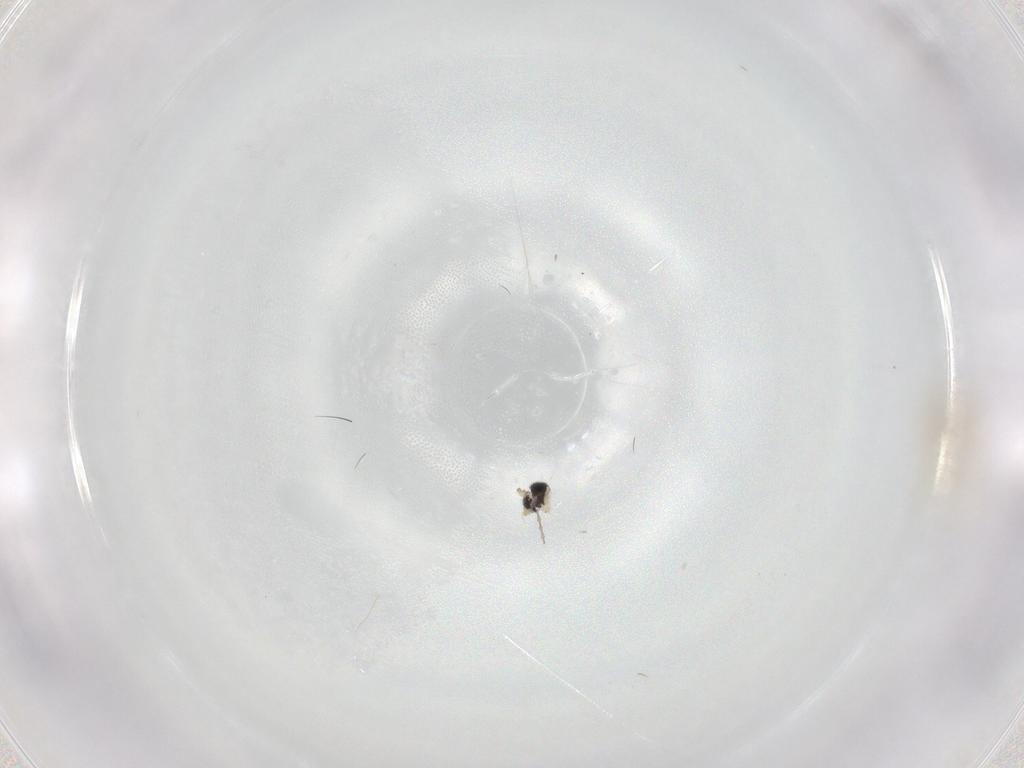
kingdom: Animalia
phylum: Arthropoda
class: Insecta
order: Diptera
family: Cecidomyiidae
